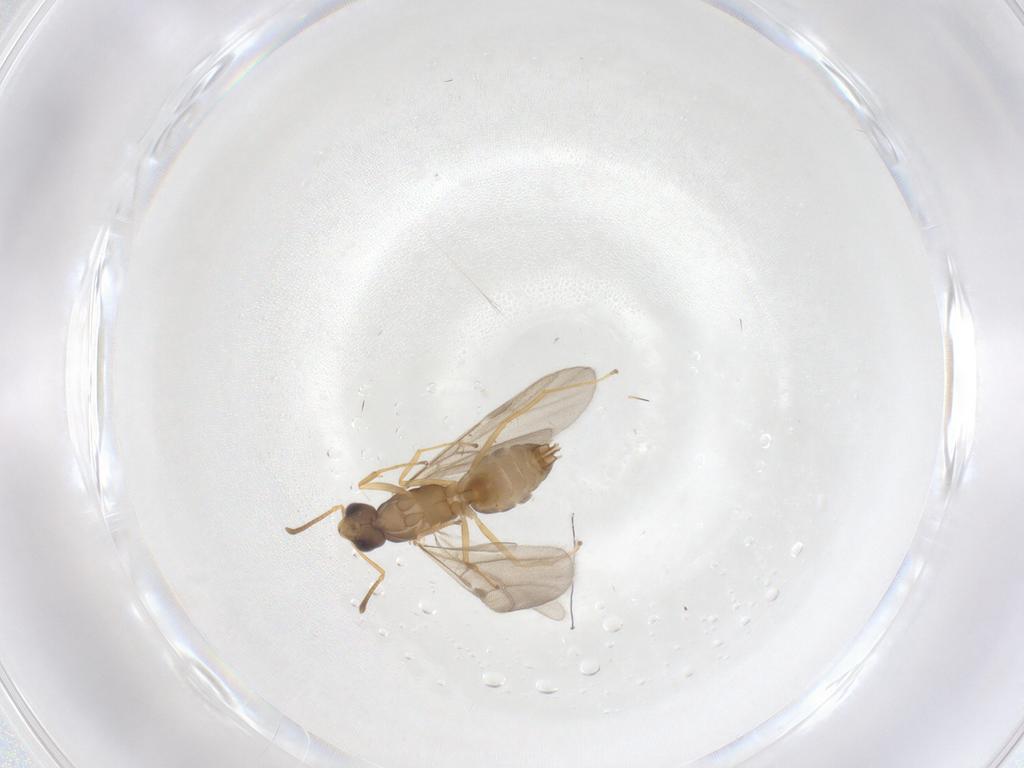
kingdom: Animalia
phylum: Arthropoda
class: Insecta
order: Hymenoptera
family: Formicidae
